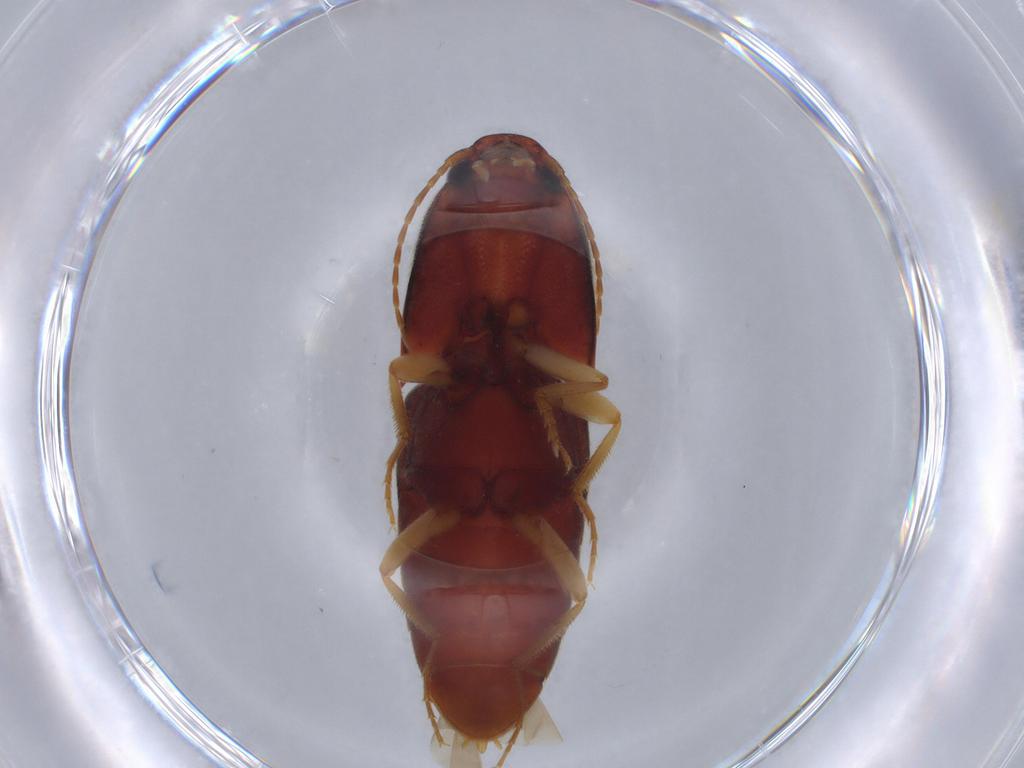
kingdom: Animalia
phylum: Arthropoda
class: Insecta
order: Coleoptera
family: Elateridae
